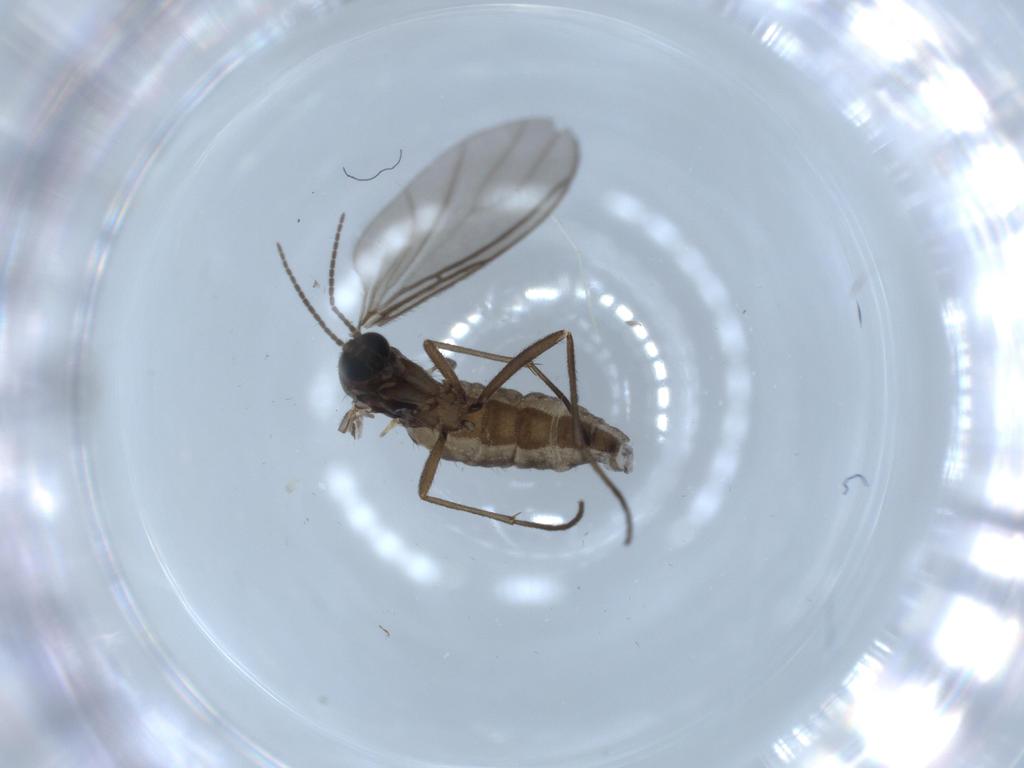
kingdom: Animalia
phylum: Arthropoda
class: Insecta
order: Diptera
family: Sciaridae
